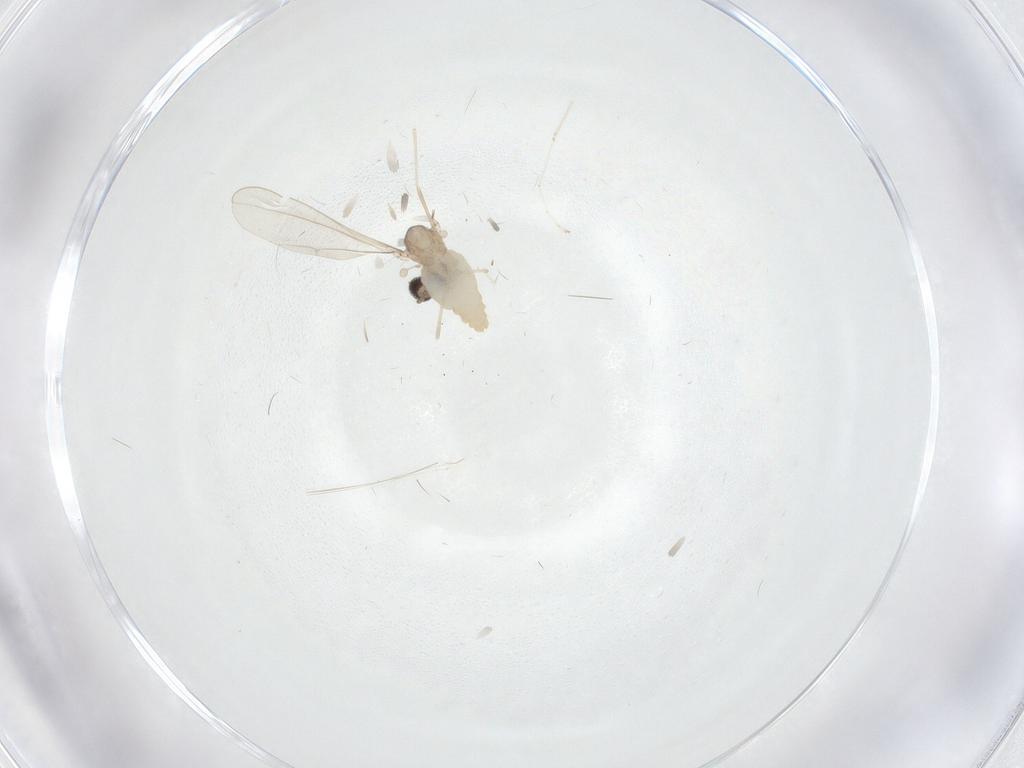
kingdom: Animalia
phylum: Arthropoda
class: Insecta
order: Diptera
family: Cecidomyiidae
